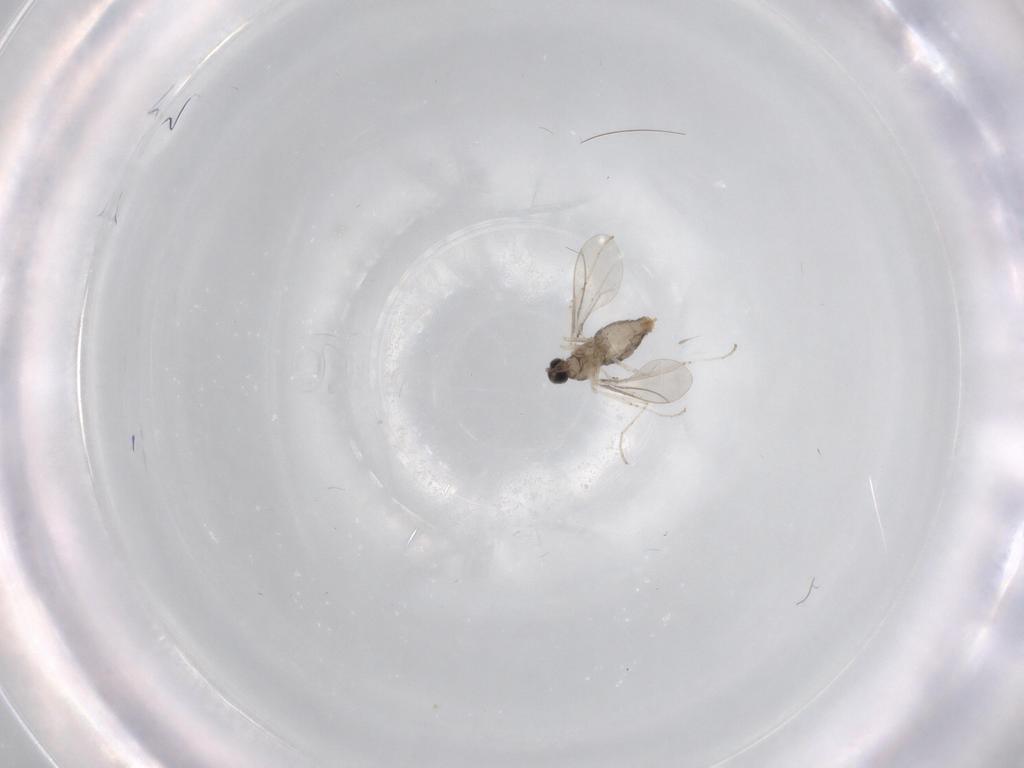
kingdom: Animalia
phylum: Arthropoda
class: Insecta
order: Diptera
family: Cecidomyiidae
